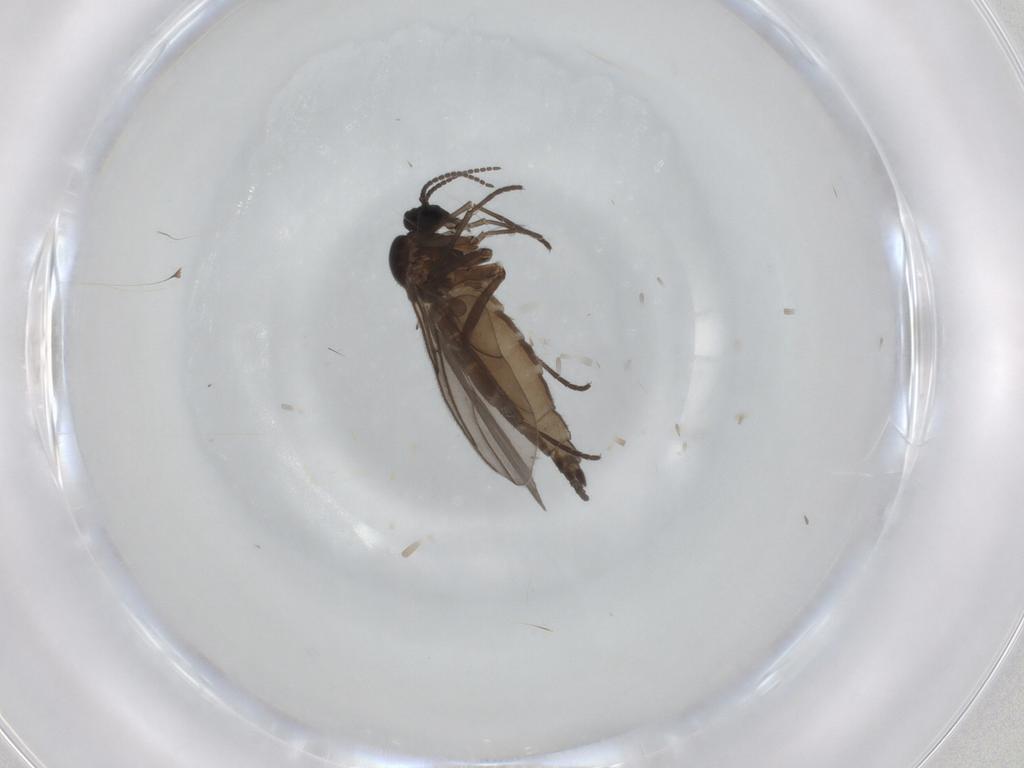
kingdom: Animalia
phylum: Arthropoda
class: Insecta
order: Diptera
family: Sciaridae
